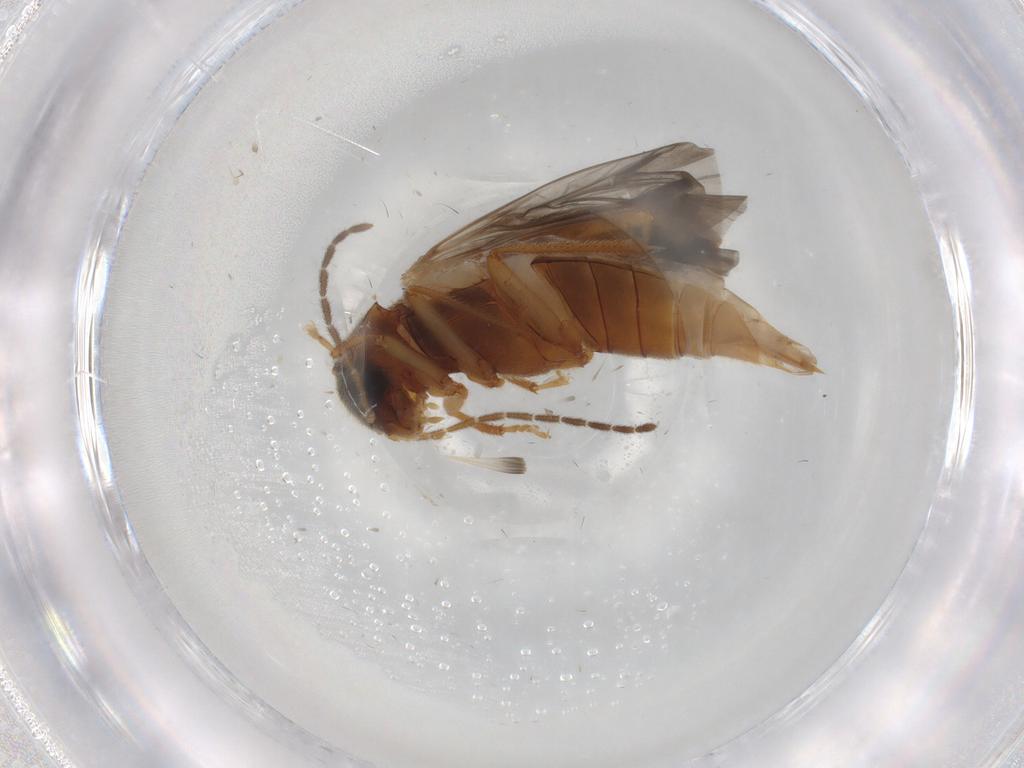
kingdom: Animalia
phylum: Arthropoda
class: Insecta
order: Coleoptera
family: Ptilodactylidae
